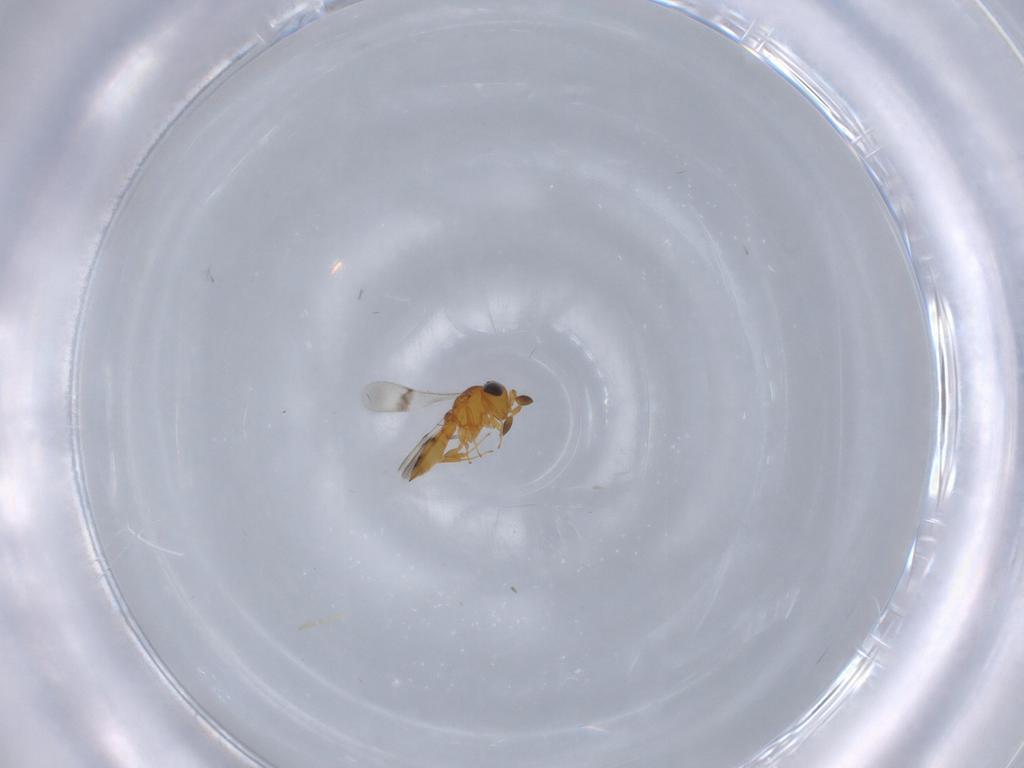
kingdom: Animalia
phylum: Arthropoda
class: Insecta
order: Hymenoptera
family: Scelionidae
